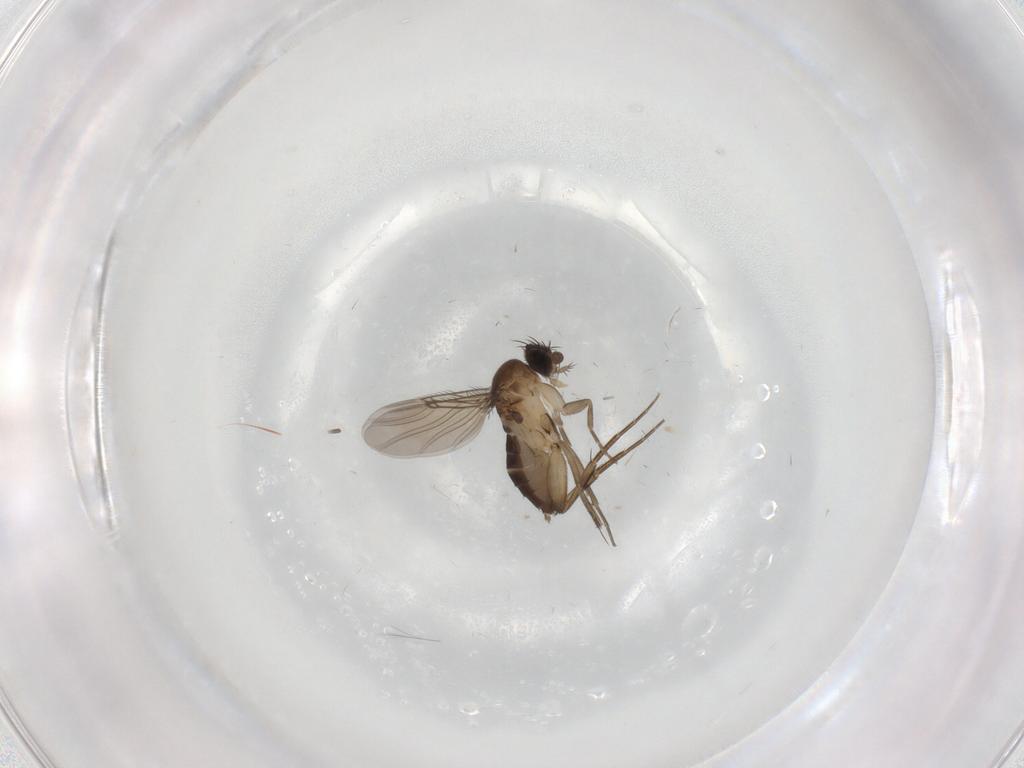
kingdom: Animalia
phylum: Arthropoda
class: Insecta
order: Diptera
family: Phoridae
